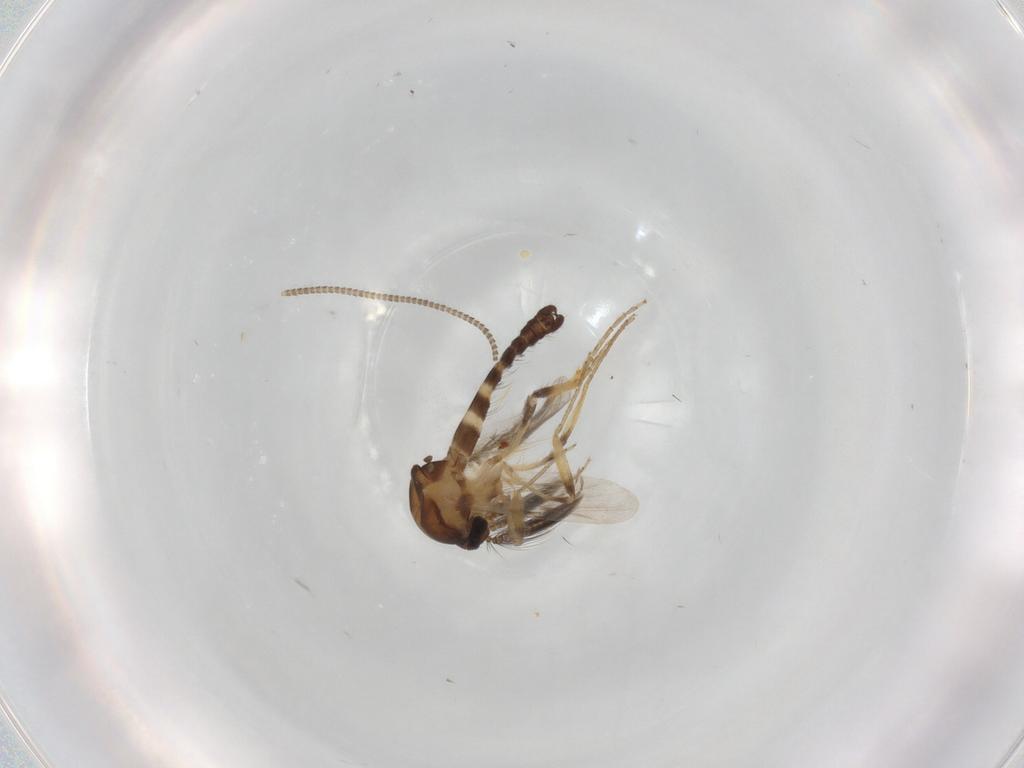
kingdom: Animalia
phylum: Arthropoda
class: Insecta
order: Diptera
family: Ceratopogonidae
